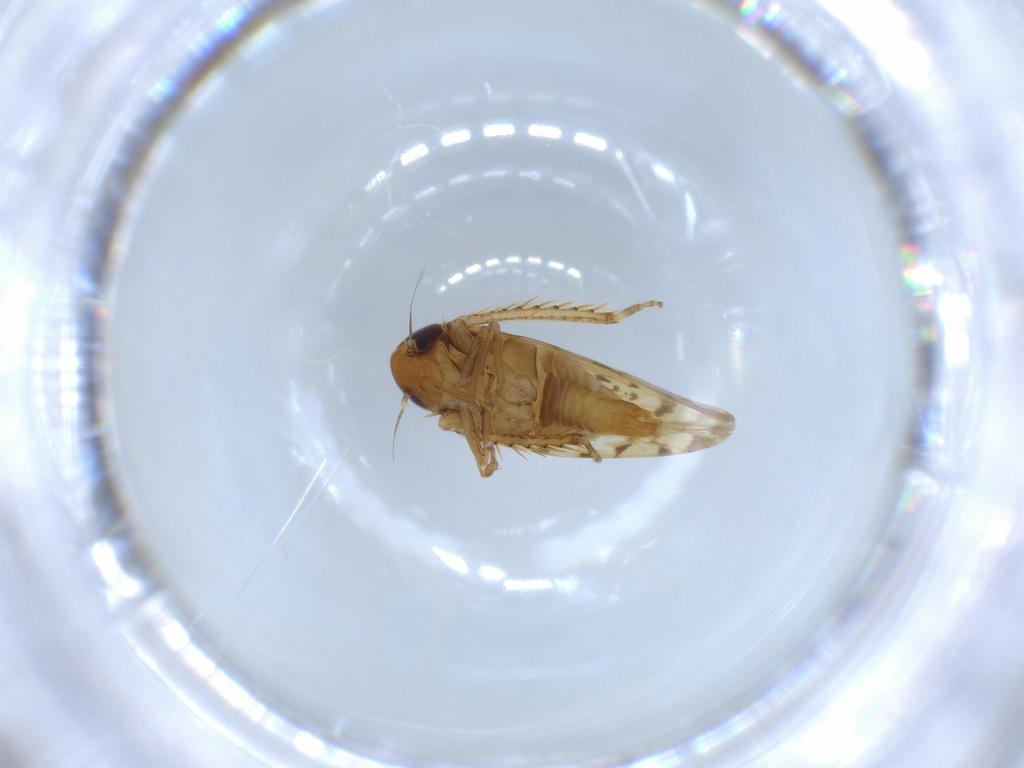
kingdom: Animalia
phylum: Arthropoda
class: Insecta
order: Hemiptera
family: Cicadellidae
